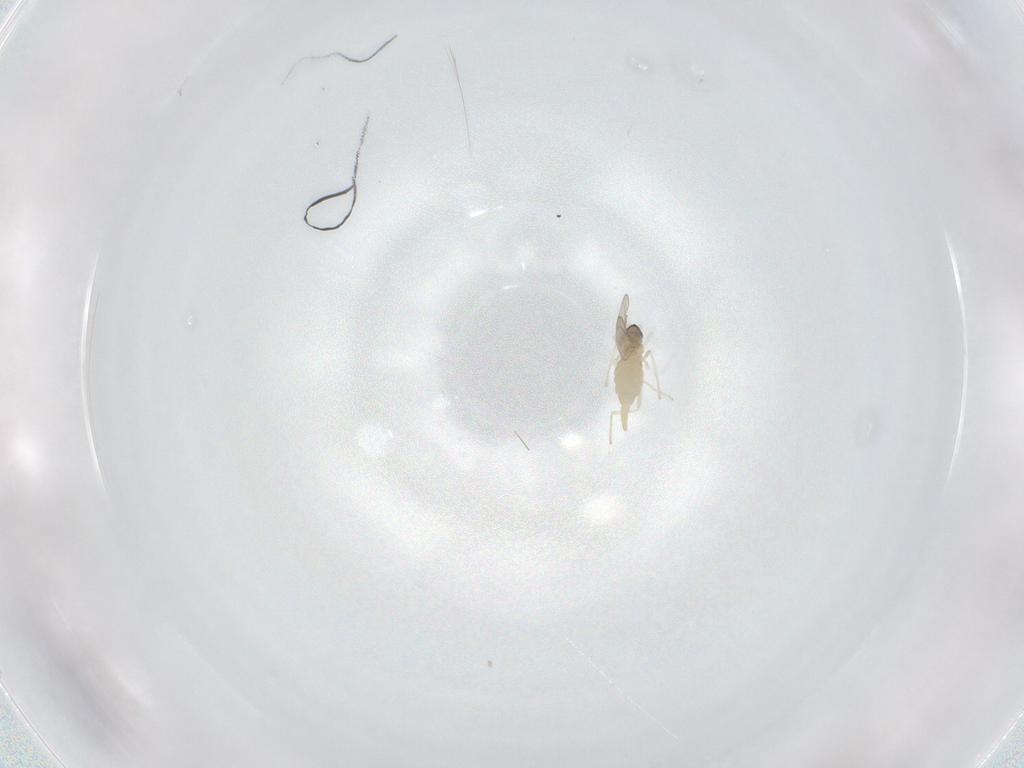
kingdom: Animalia
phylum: Arthropoda
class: Insecta
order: Diptera
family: Cecidomyiidae
